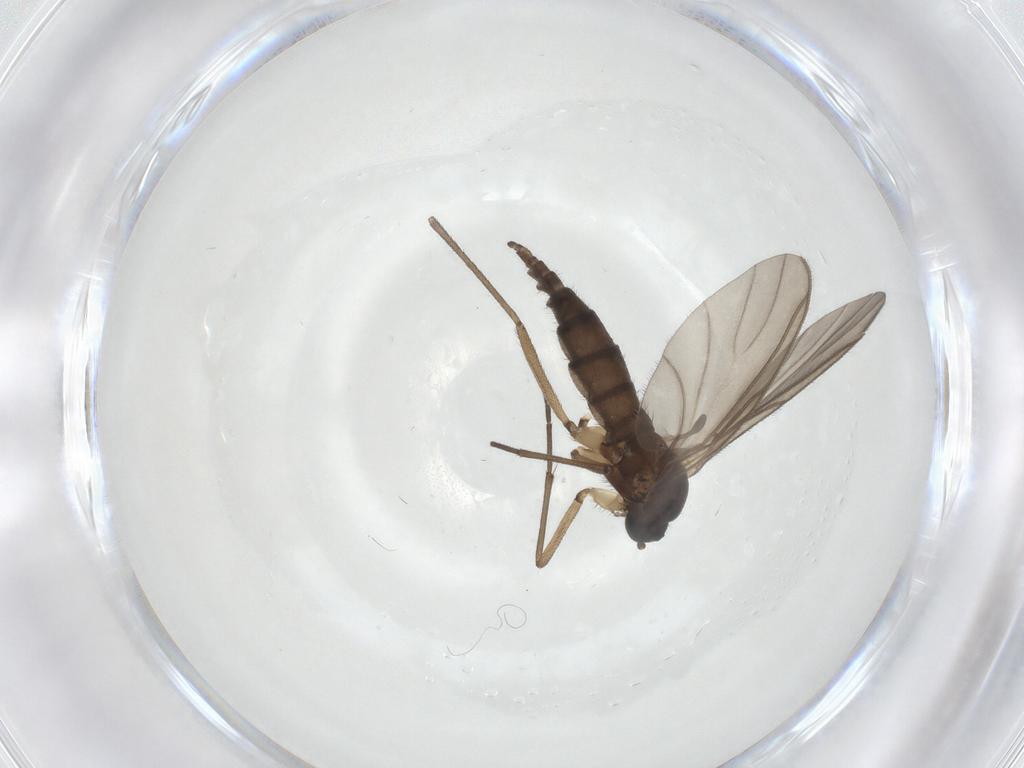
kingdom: Animalia
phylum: Arthropoda
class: Insecta
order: Diptera
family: Sciaridae
